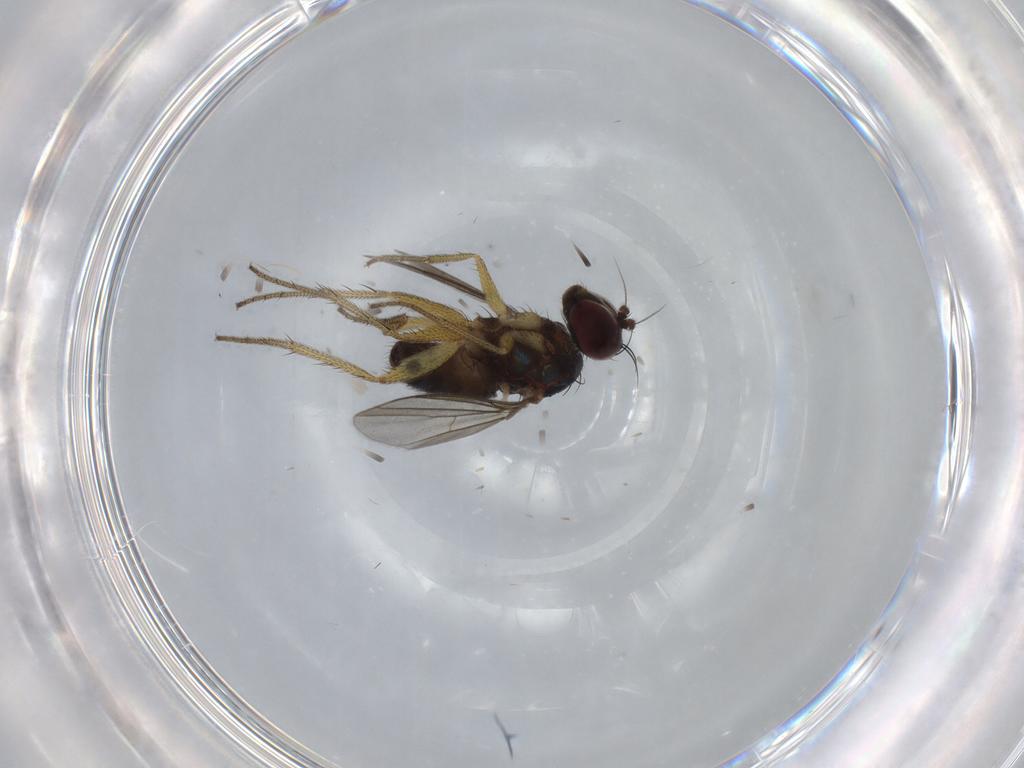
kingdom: Animalia
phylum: Arthropoda
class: Insecta
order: Diptera
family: Dolichopodidae
